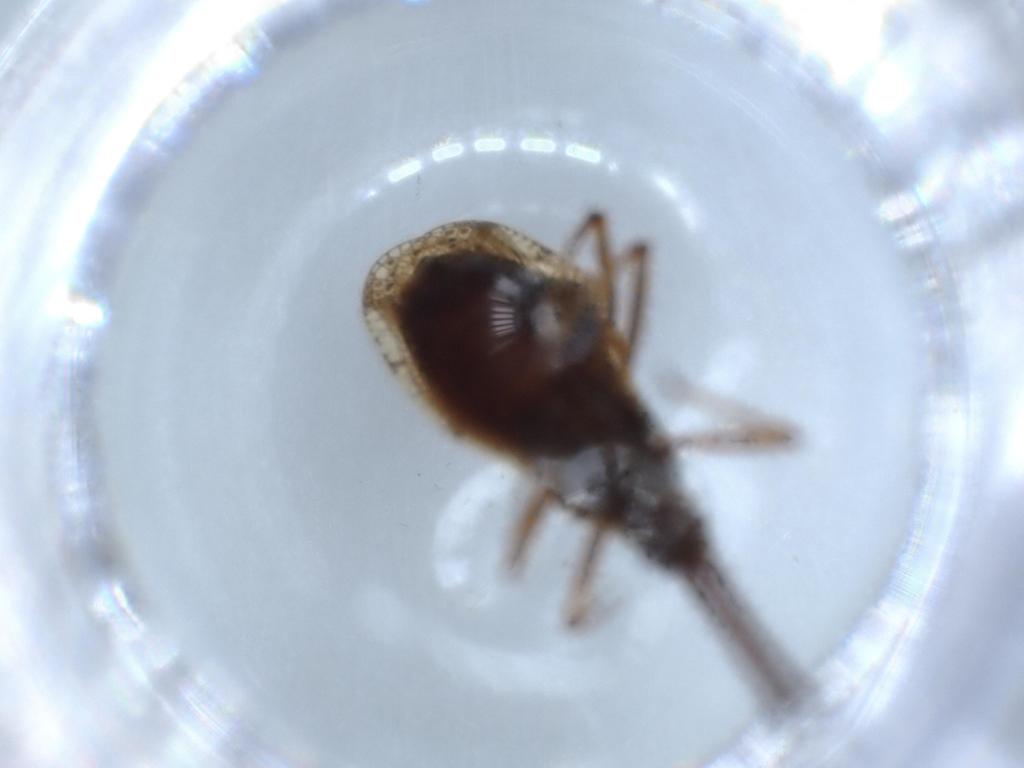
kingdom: Animalia
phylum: Arthropoda
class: Insecta
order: Hemiptera
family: Tingidae
